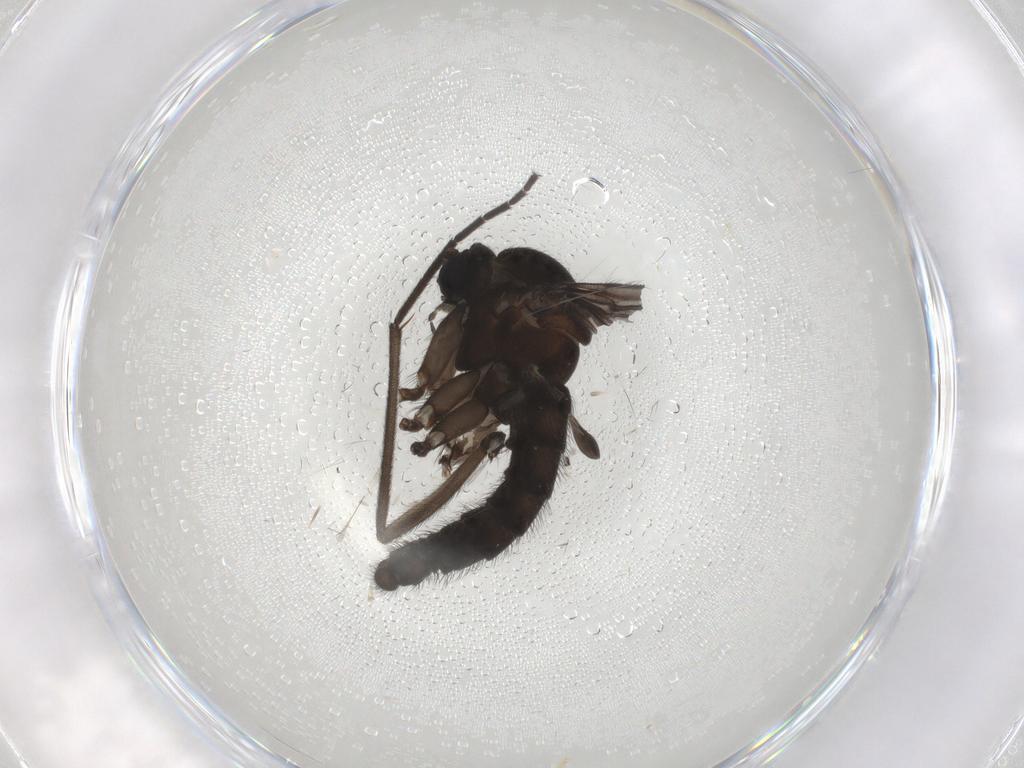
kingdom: Animalia
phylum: Arthropoda
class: Insecta
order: Diptera
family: Sciaridae
